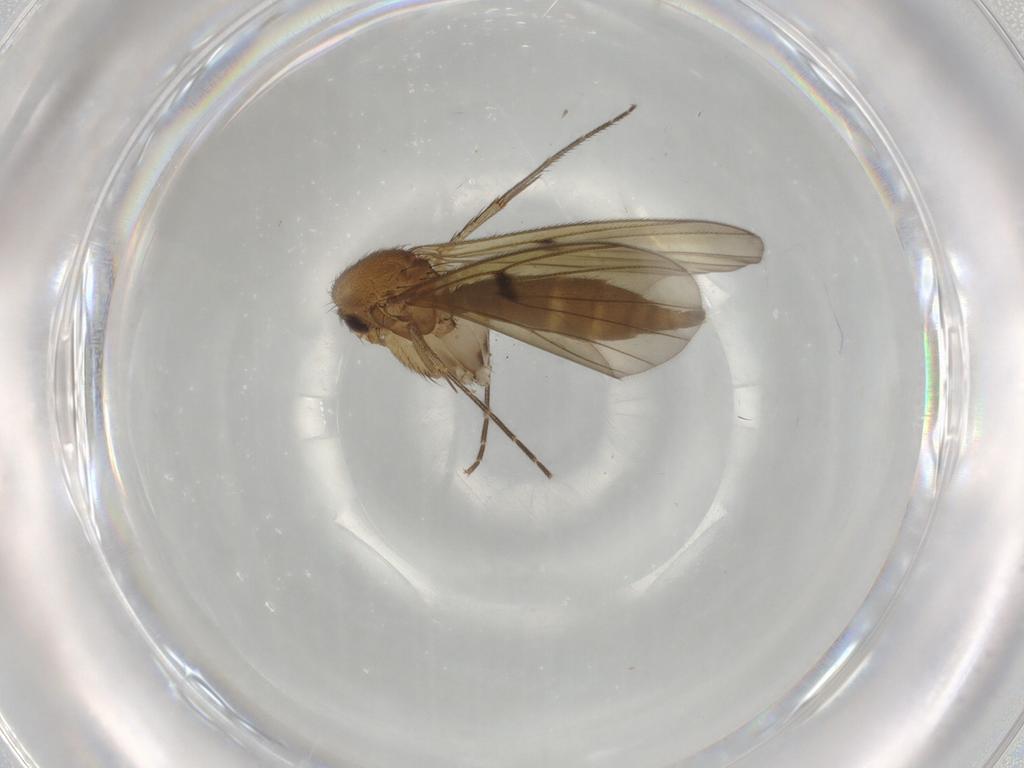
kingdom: Animalia
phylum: Arthropoda
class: Insecta
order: Diptera
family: Mycetophilidae
